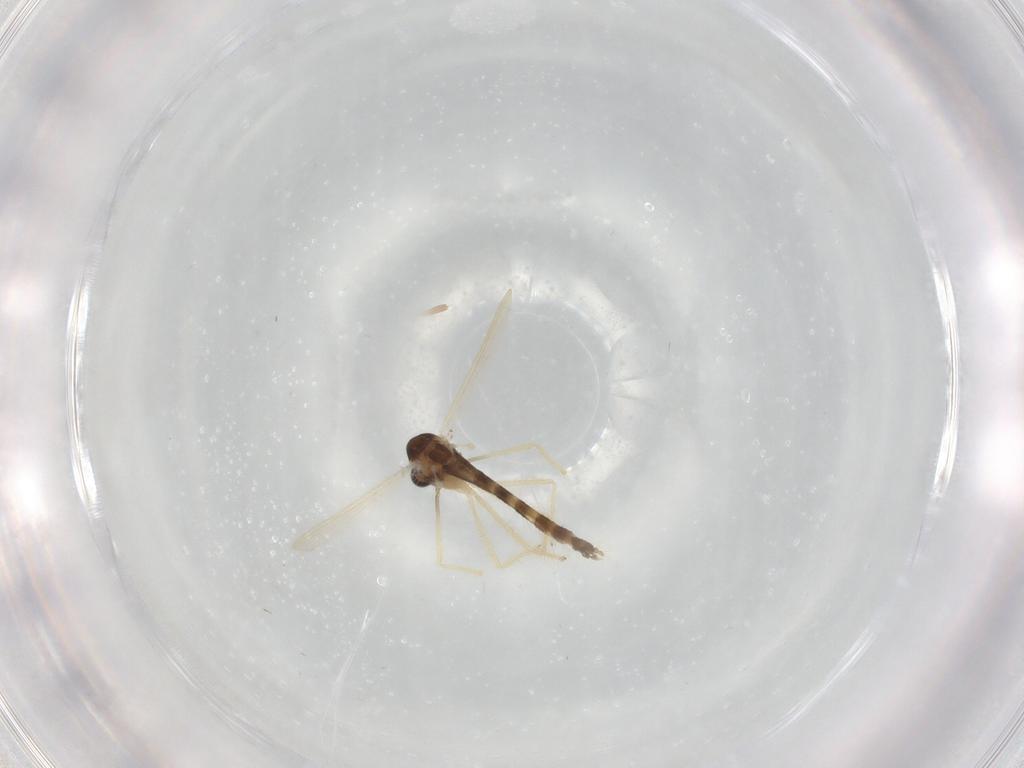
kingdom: Animalia
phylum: Arthropoda
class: Insecta
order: Diptera
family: Chironomidae
